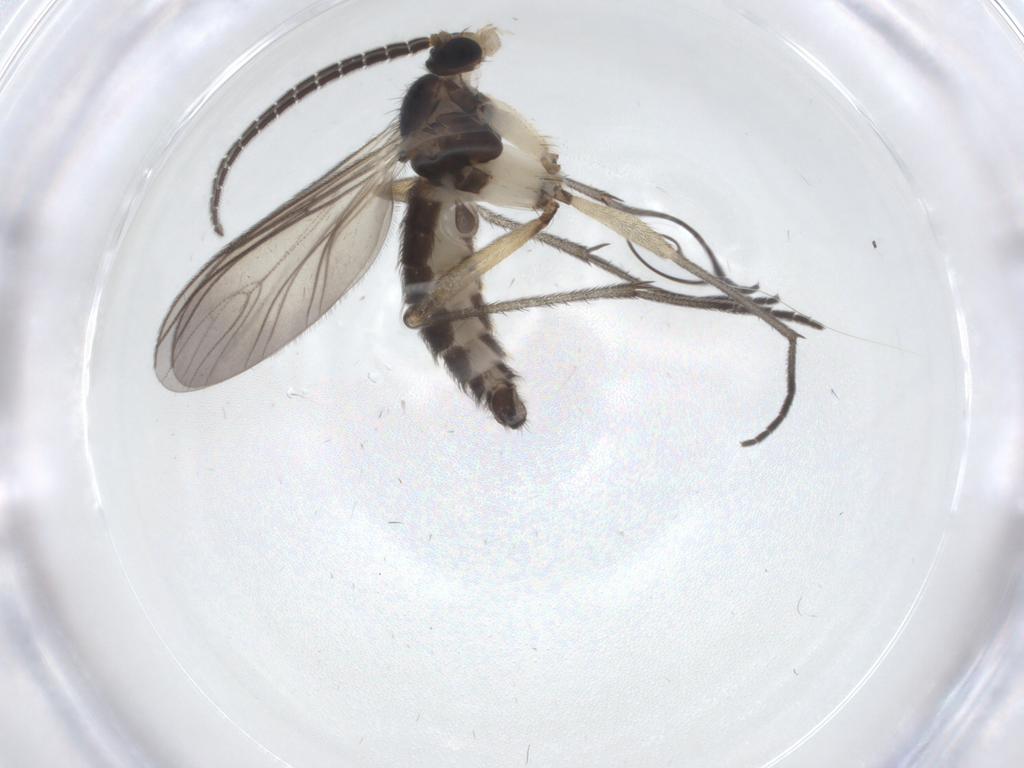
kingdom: Animalia
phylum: Arthropoda
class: Insecta
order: Diptera
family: Sciaridae
